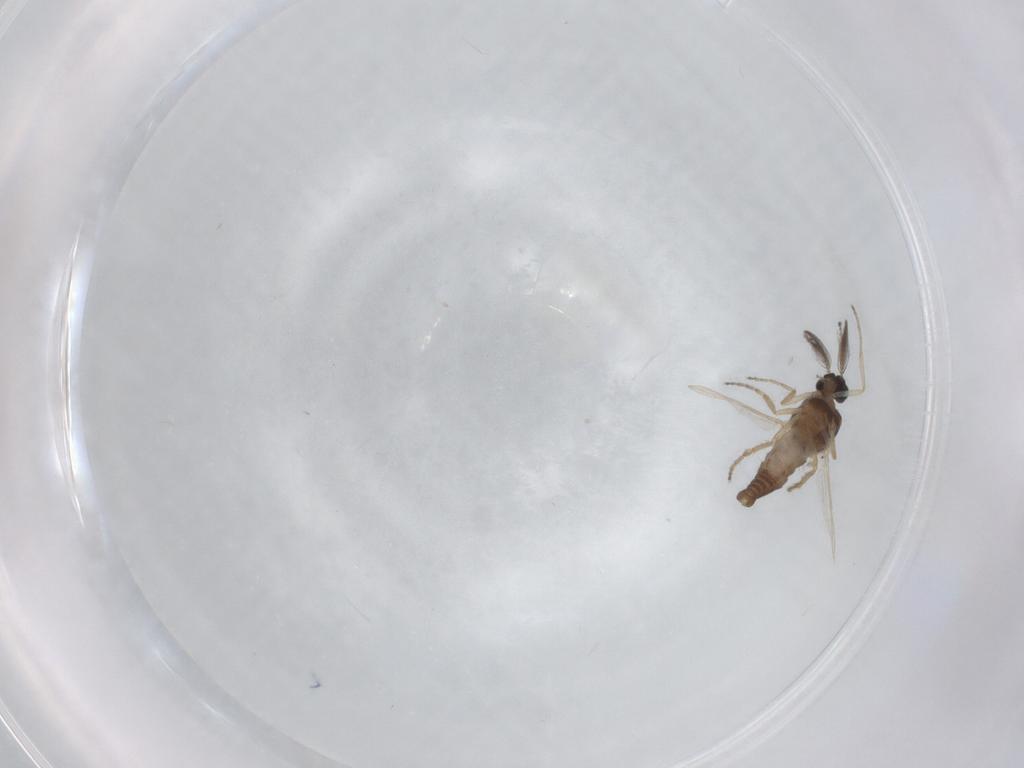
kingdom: Animalia
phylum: Arthropoda
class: Insecta
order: Diptera
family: Ceratopogonidae
